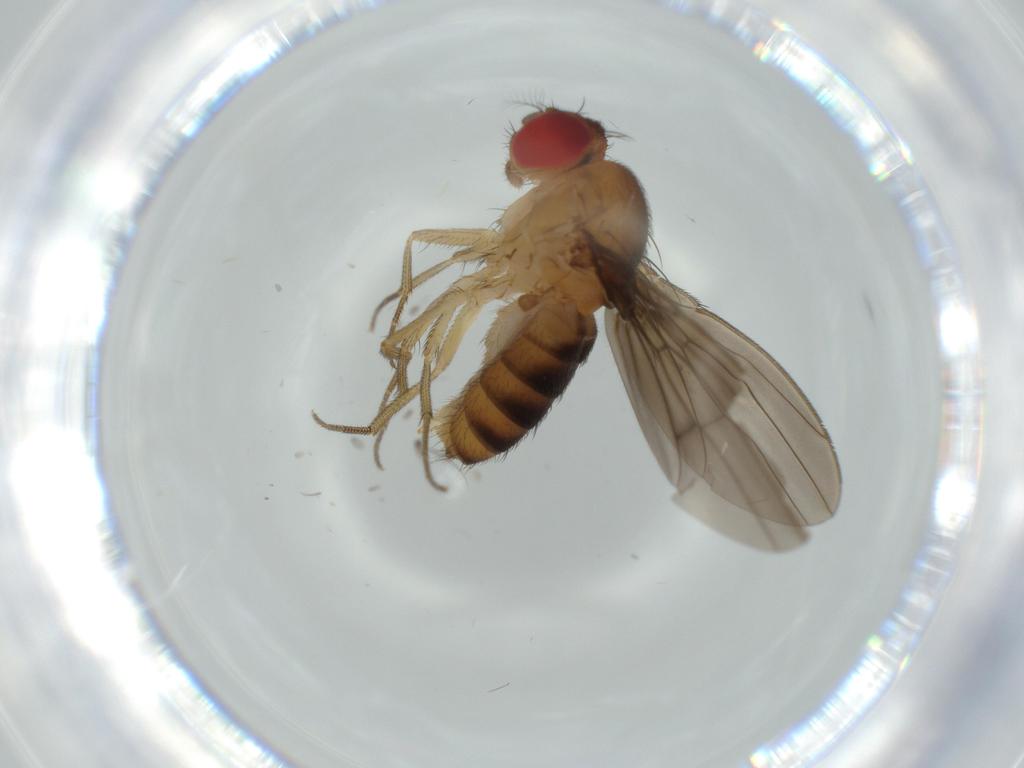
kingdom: Animalia
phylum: Arthropoda
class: Insecta
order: Diptera
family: Drosophilidae
